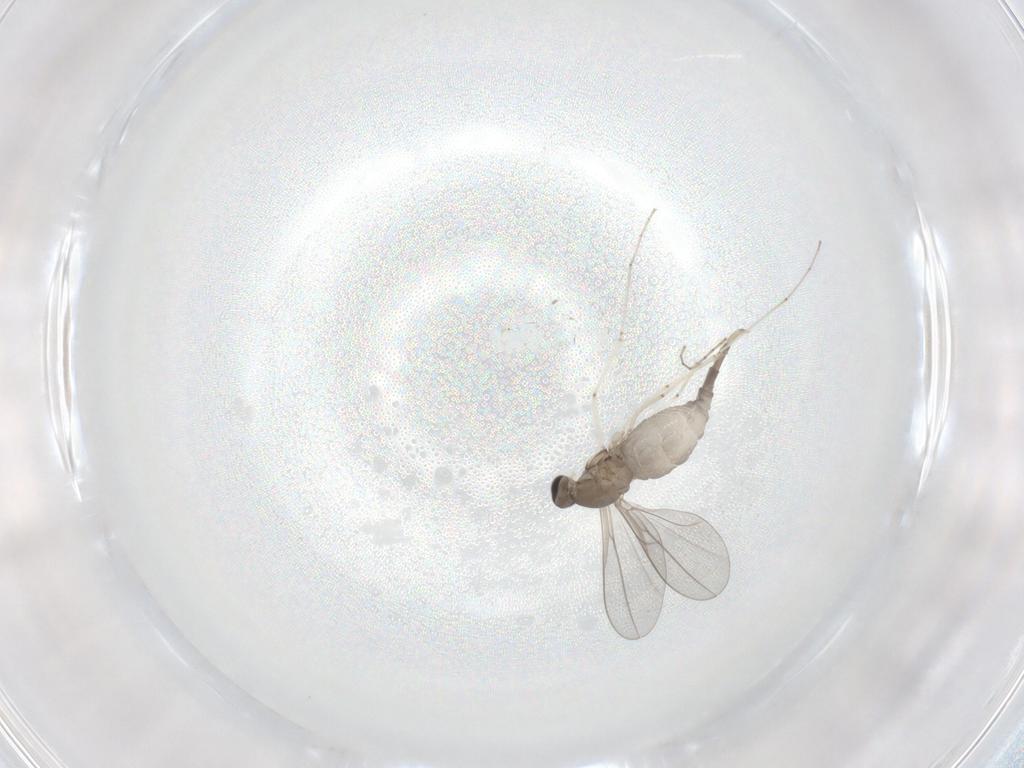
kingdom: Animalia
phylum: Arthropoda
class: Insecta
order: Diptera
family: Cecidomyiidae
